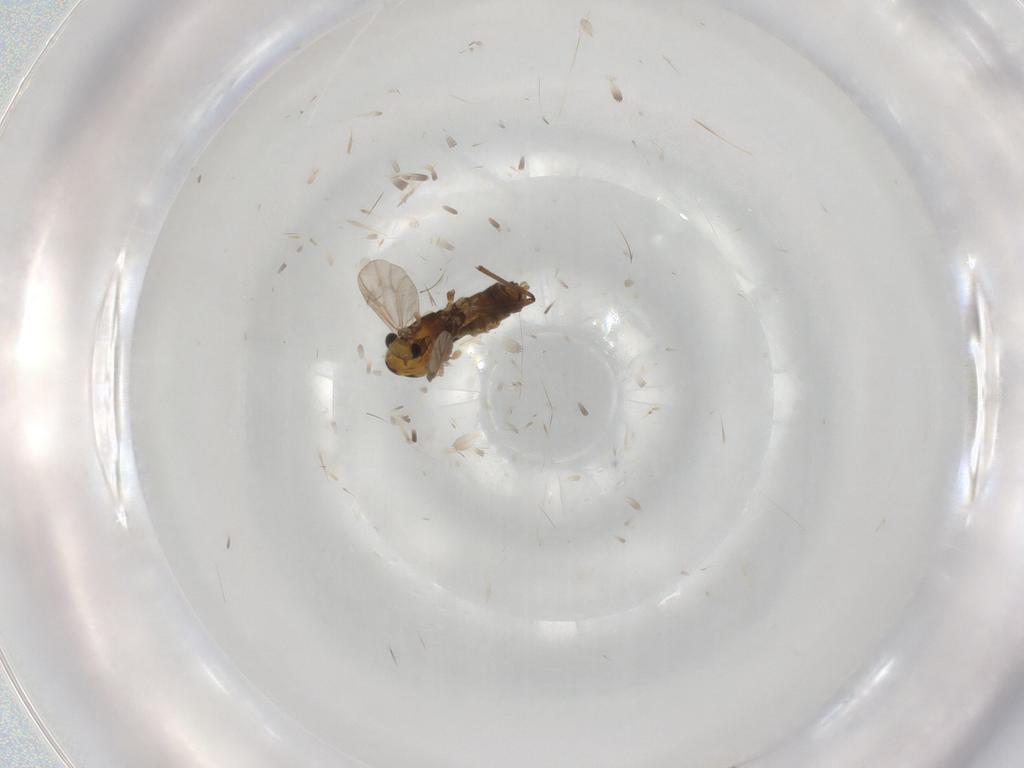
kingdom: Animalia
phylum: Arthropoda
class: Insecta
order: Diptera
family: Chironomidae
